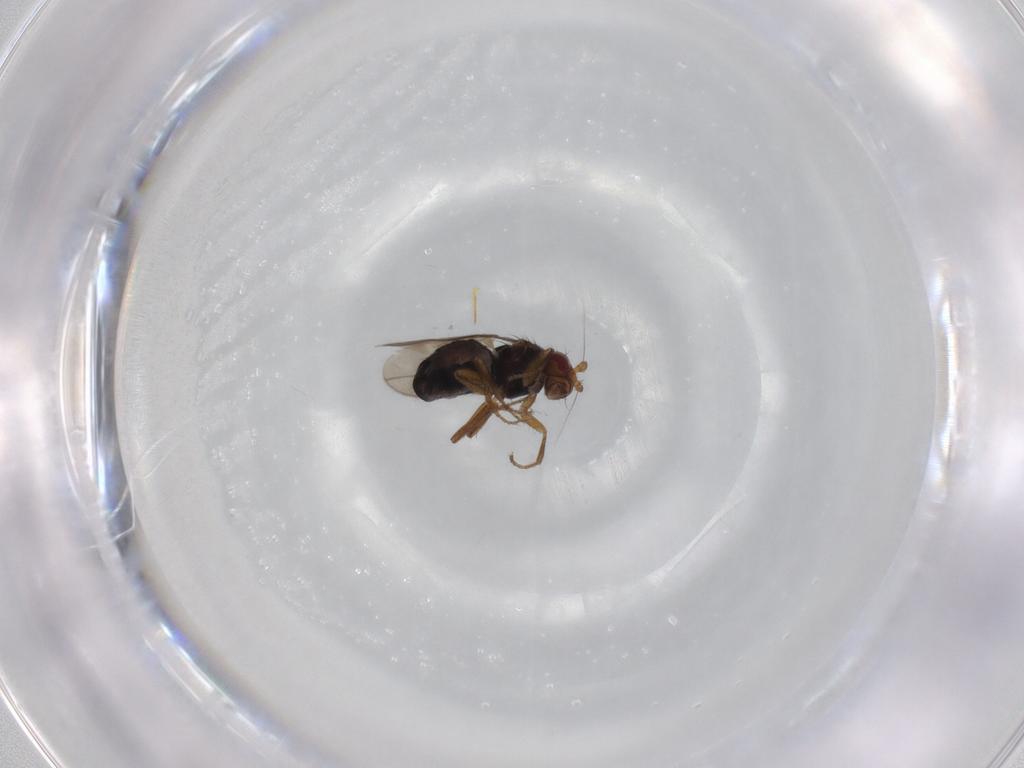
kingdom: Animalia
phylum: Arthropoda
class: Insecta
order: Diptera
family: Sphaeroceridae
